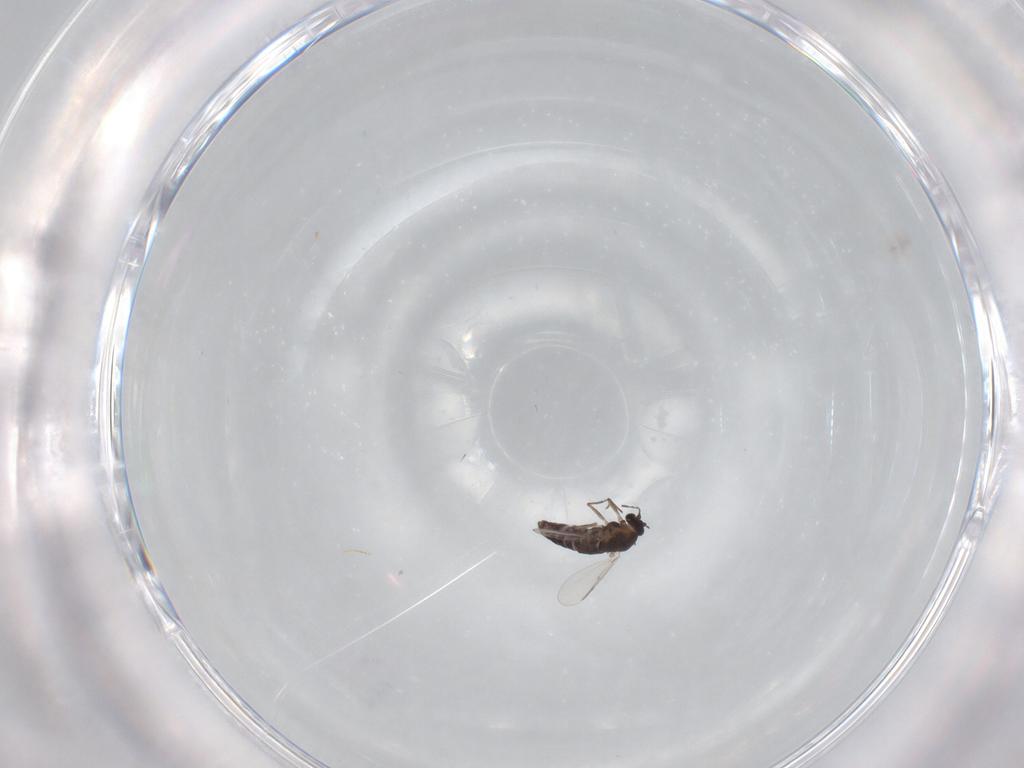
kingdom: Animalia
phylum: Arthropoda
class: Insecta
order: Diptera
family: Chironomidae
